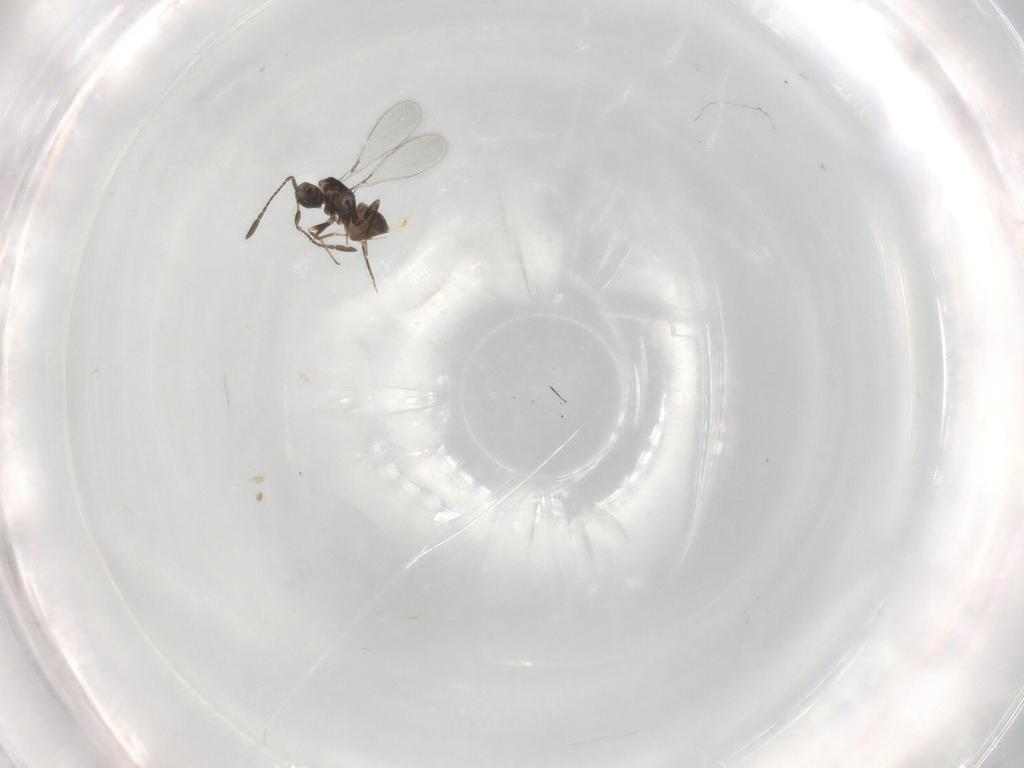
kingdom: Animalia
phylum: Arthropoda
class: Insecta
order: Hymenoptera
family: Mymaridae
